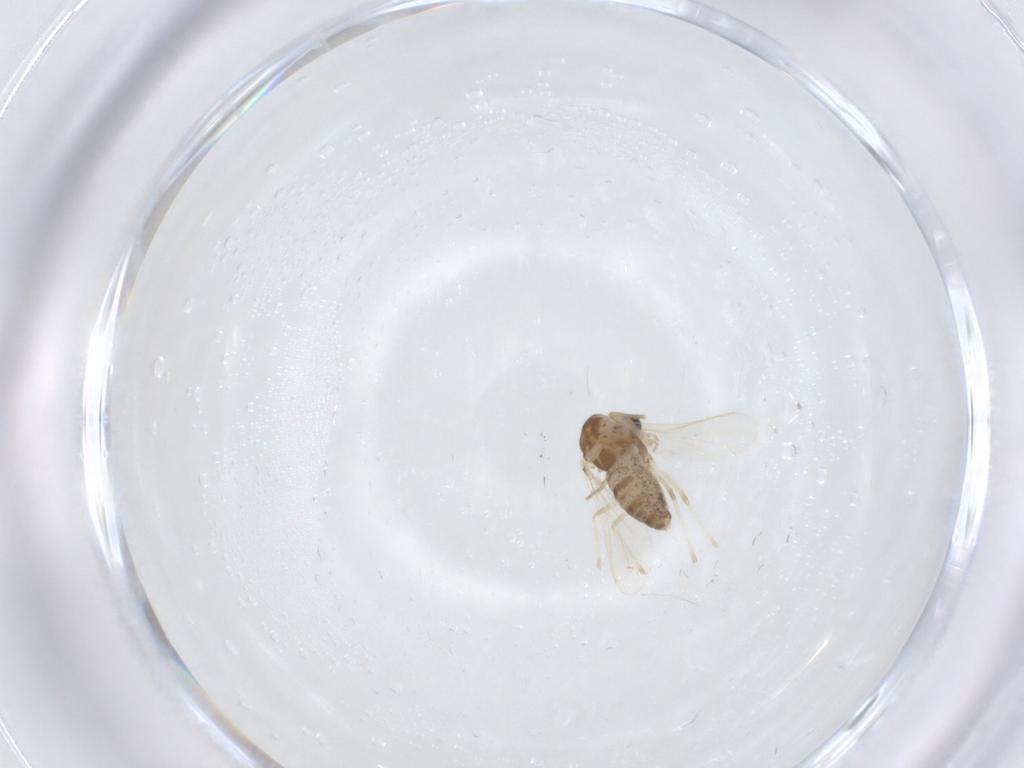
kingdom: Animalia
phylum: Arthropoda
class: Insecta
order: Diptera
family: Chironomidae
